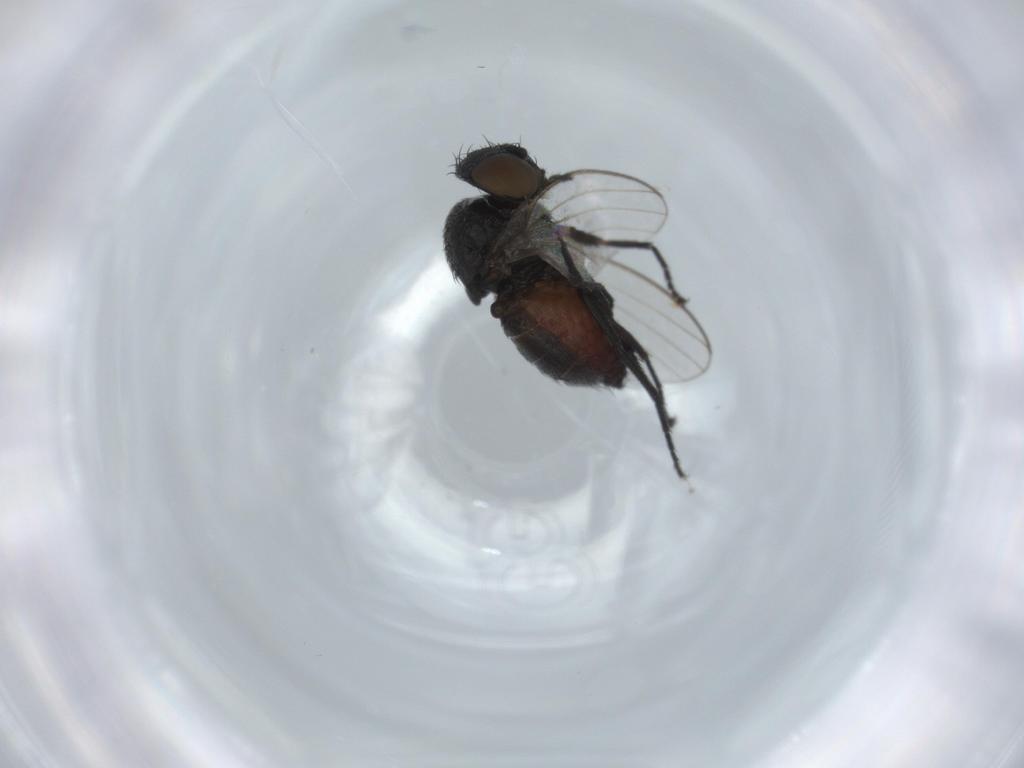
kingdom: Animalia
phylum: Arthropoda
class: Insecta
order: Diptera
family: Milichiidae
